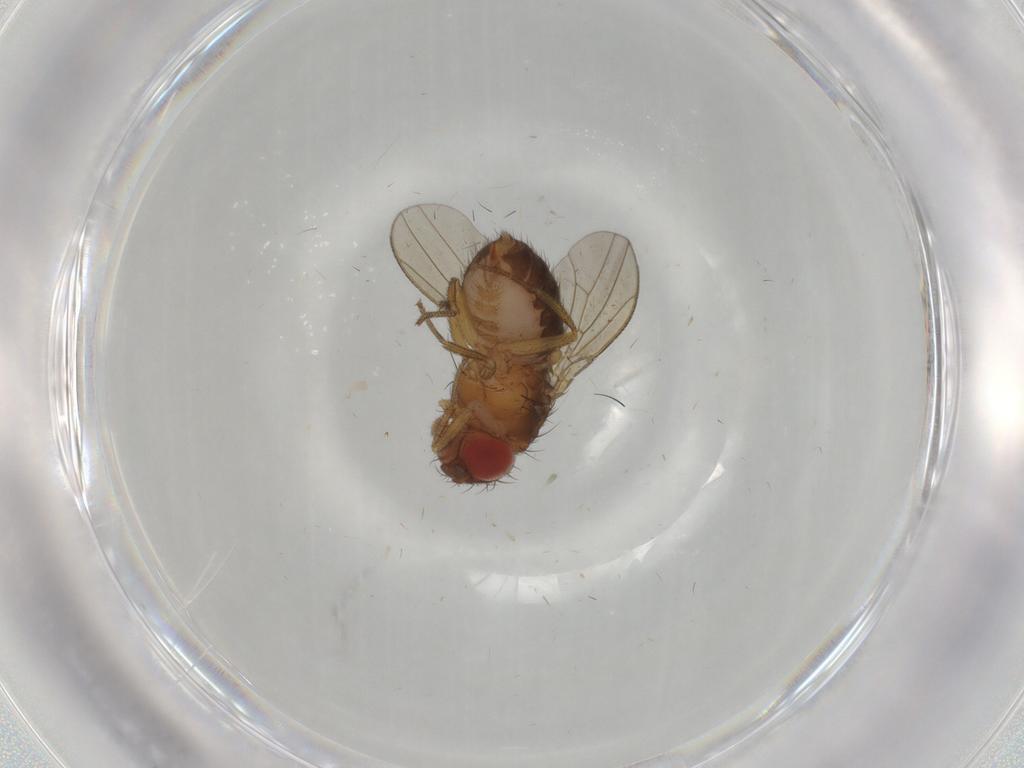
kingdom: Animalia
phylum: Arthropoda
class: Insecta
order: Diptera
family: Drosophilidae
